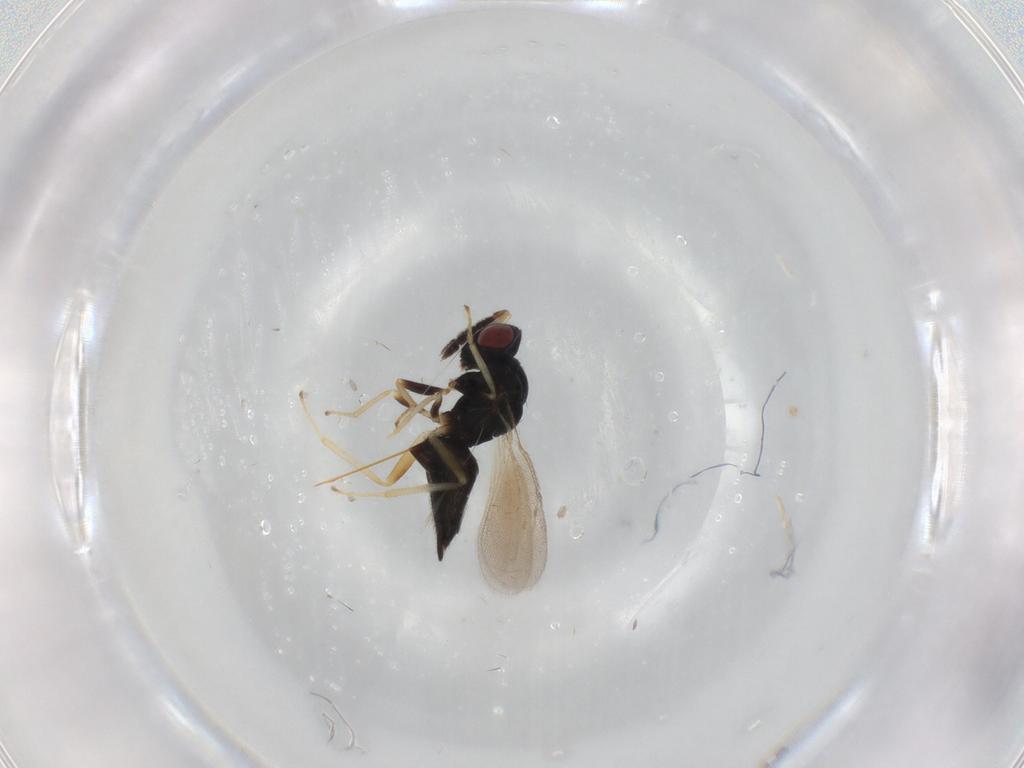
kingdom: Animalia
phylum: Arthropoda
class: Insecta
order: Hymenoptera
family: Eulophidae
